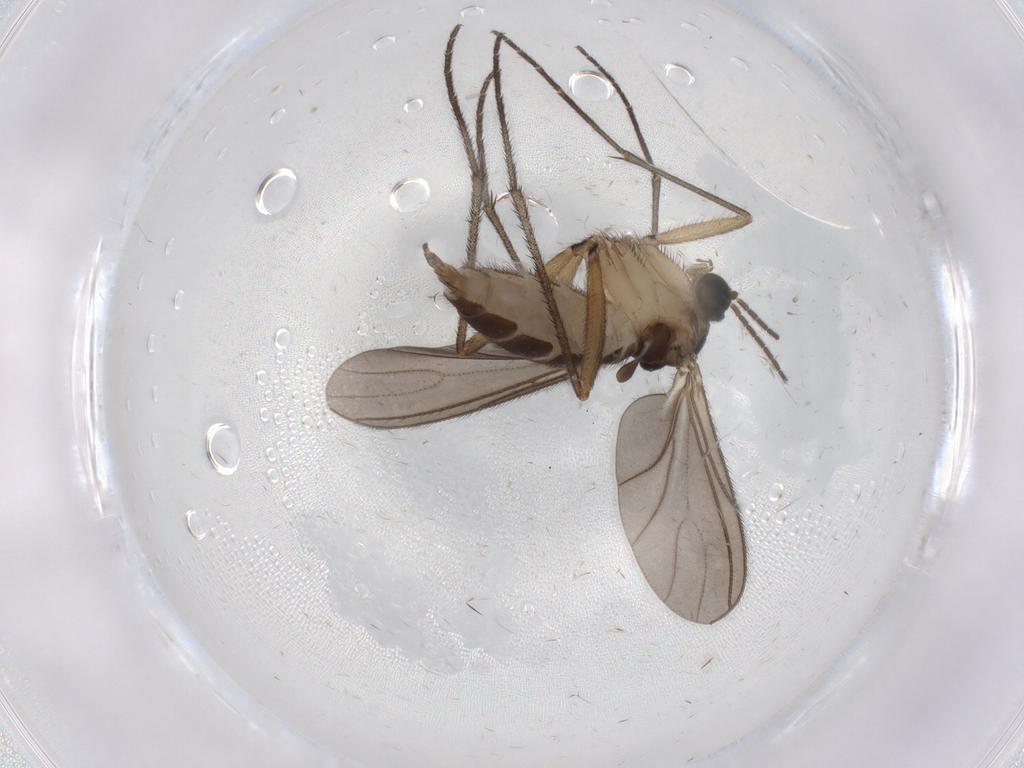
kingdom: Animalia
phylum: Arthropoda
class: Insecta
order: Diptera
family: Sciaridae
